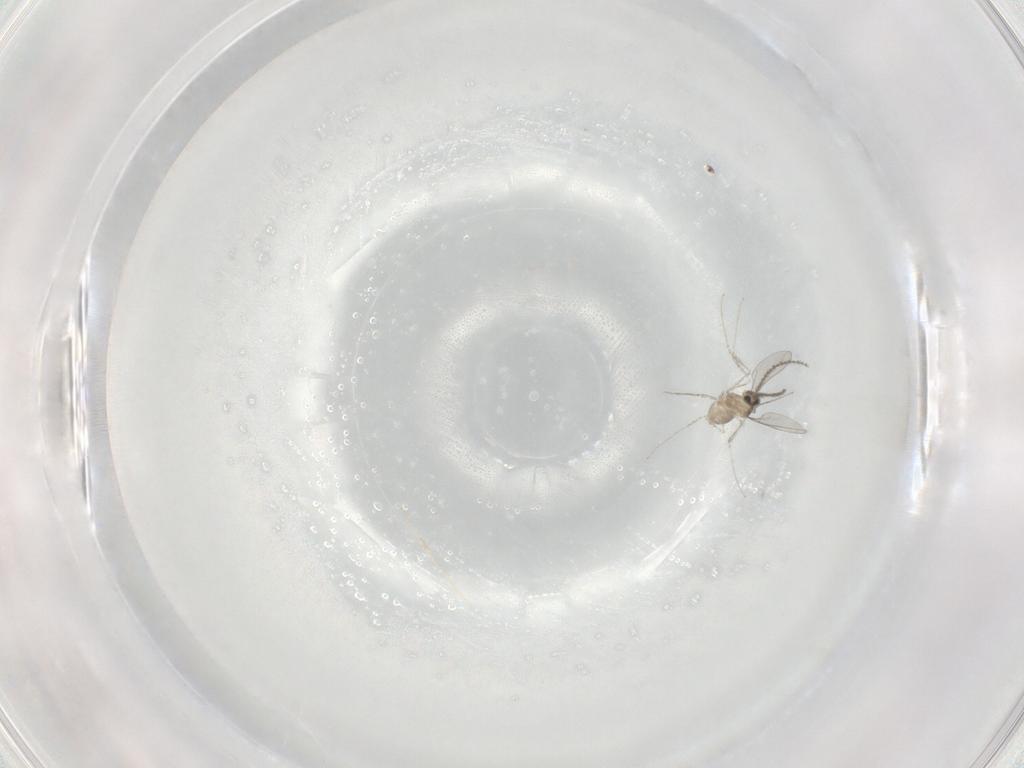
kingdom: Animalia
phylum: Arthropoda
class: Insecta
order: Diptera
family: Cecidomyiidae
